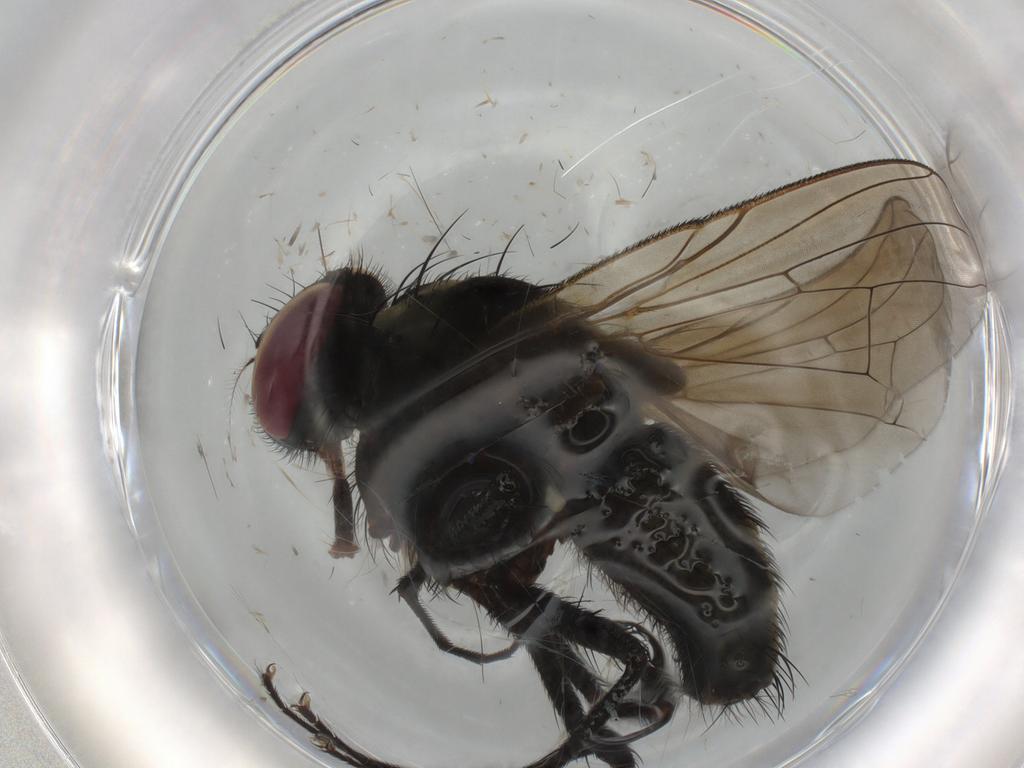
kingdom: Animalia
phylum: Arthropoda
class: Insecta
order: Diptera
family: Muscidae
